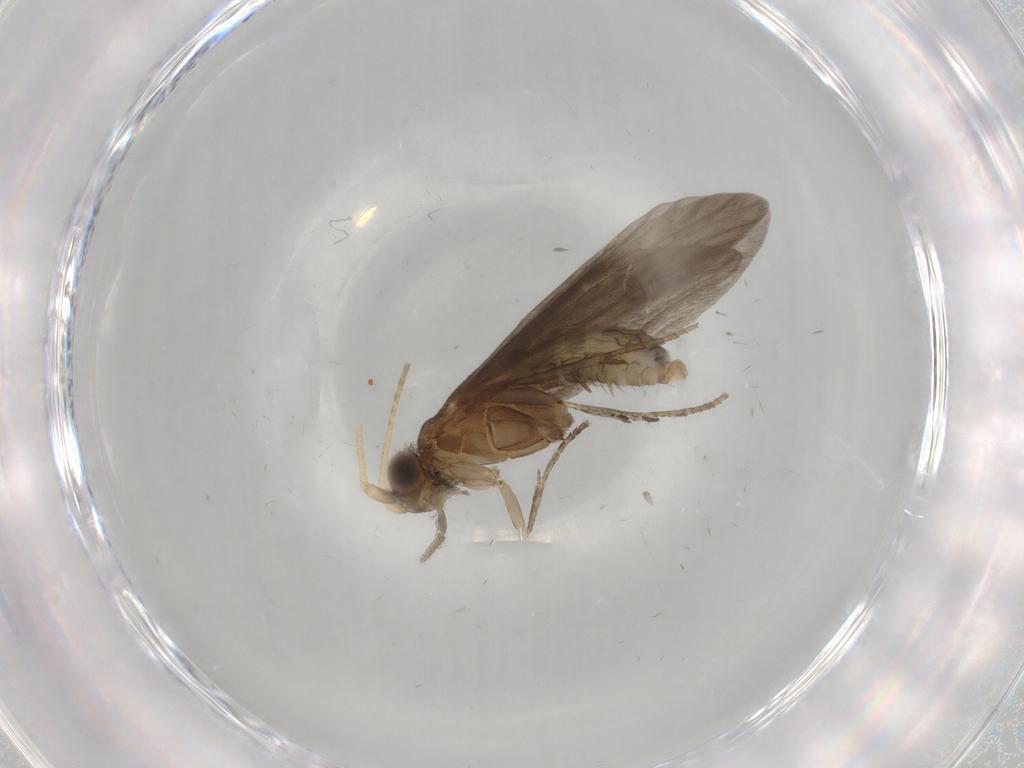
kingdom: Animalia
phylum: Arthropoda
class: Insecta
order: Trichoptera
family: Helicopsychidae
